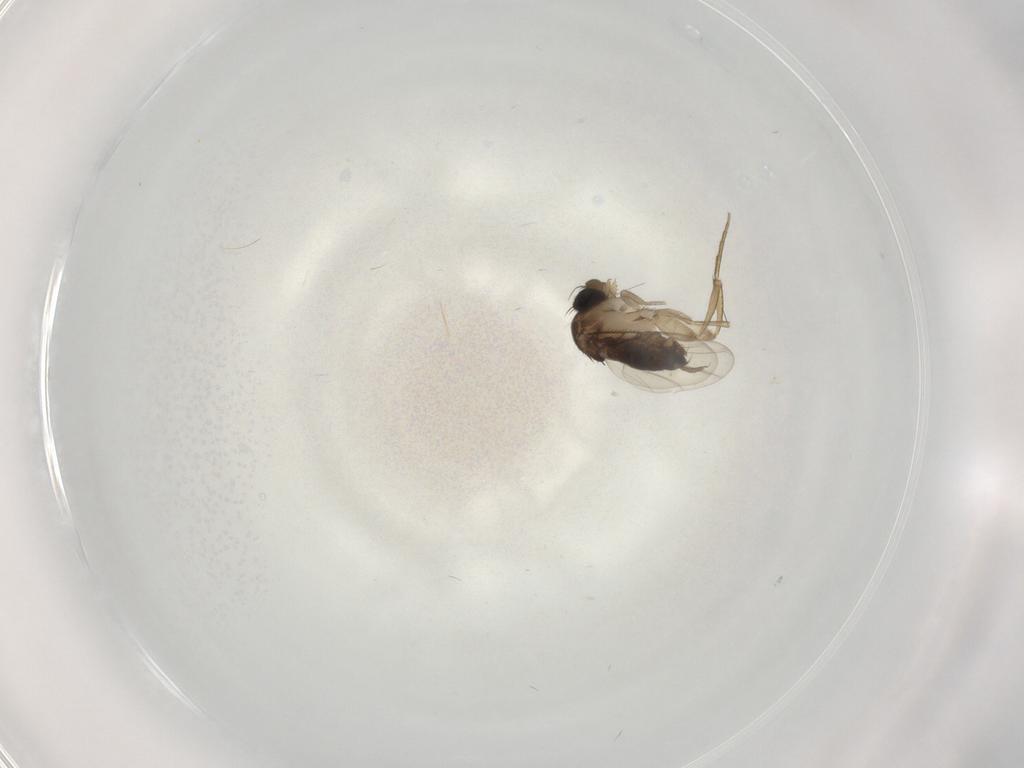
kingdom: Animalia
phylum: Arthropoda
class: Insecta
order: Diptera
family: Phoridae
